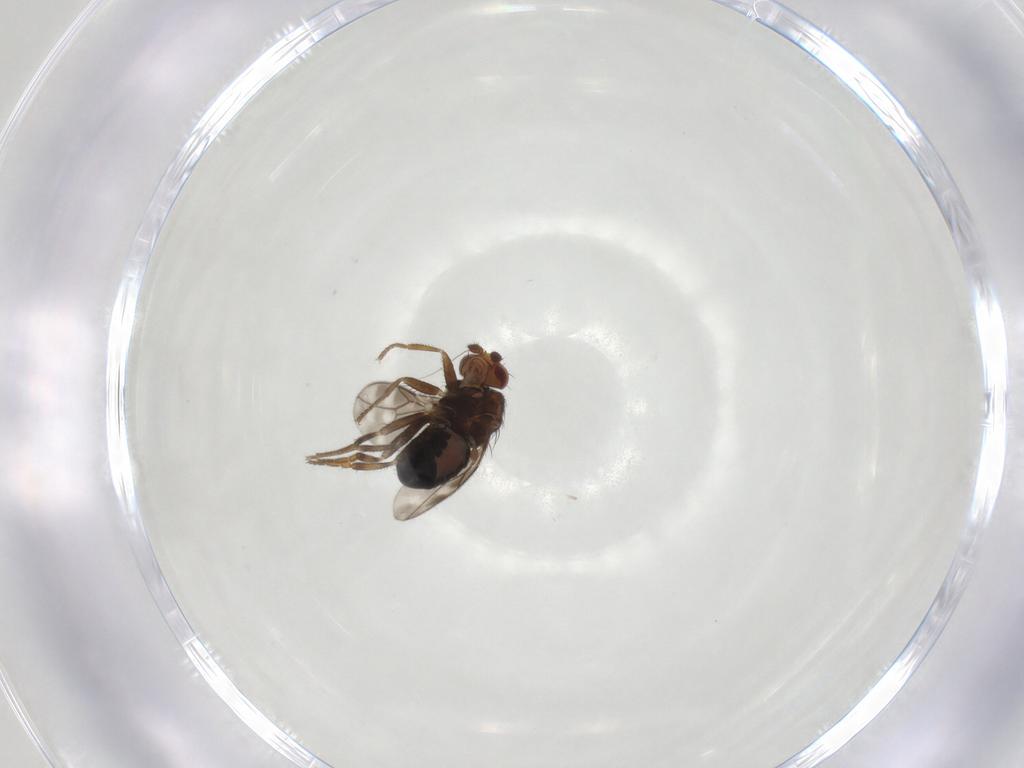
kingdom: Animalia
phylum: Arthropoda
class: Insecta
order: Diptera
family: Sphaeroceridae
